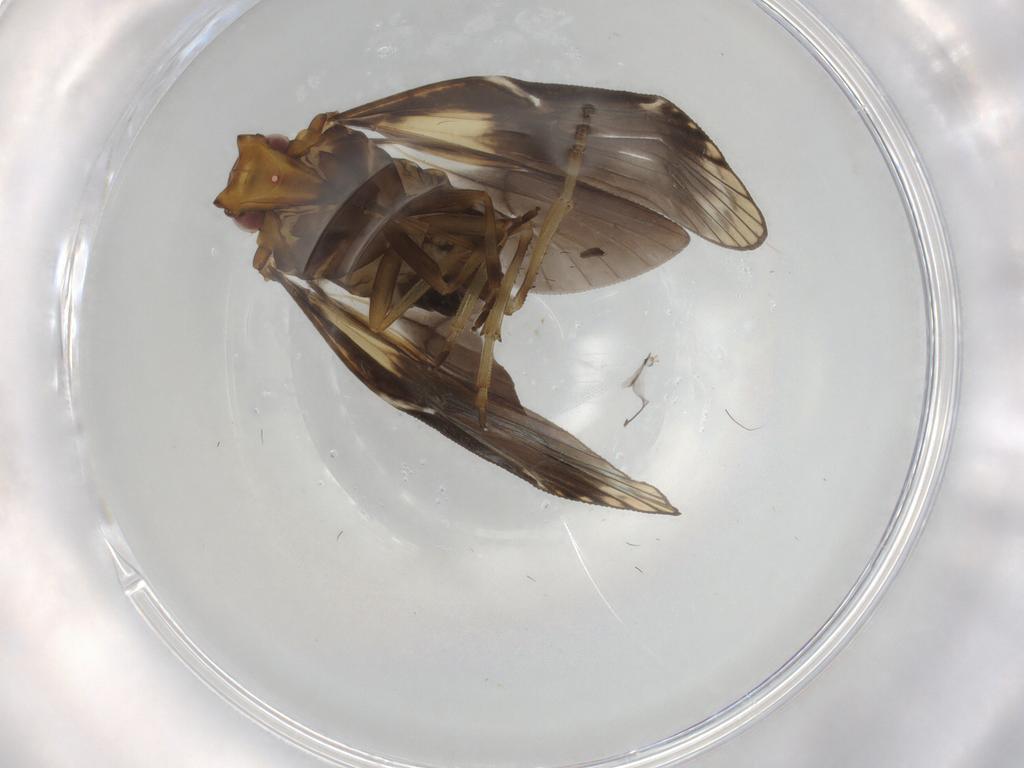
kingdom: Animalia
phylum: Arthropoda
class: Insecta
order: Hemiptera
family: Cixiidae
